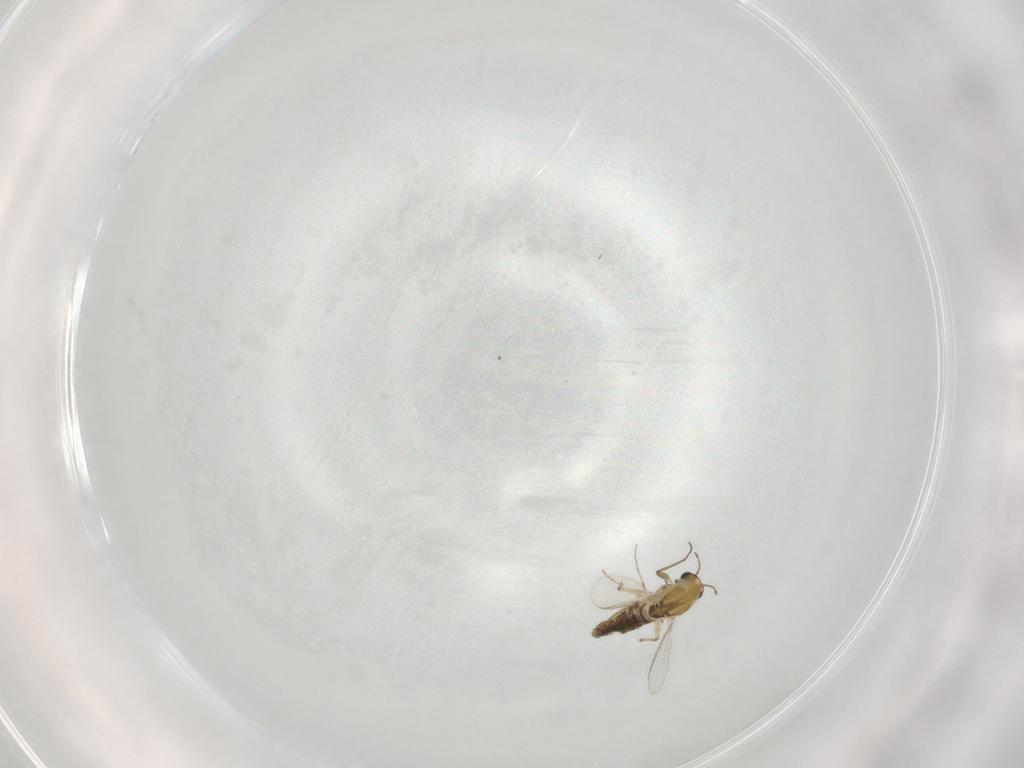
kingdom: Animalia
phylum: Arthropoda
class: Insecta
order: Diptera
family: Chironomidae
